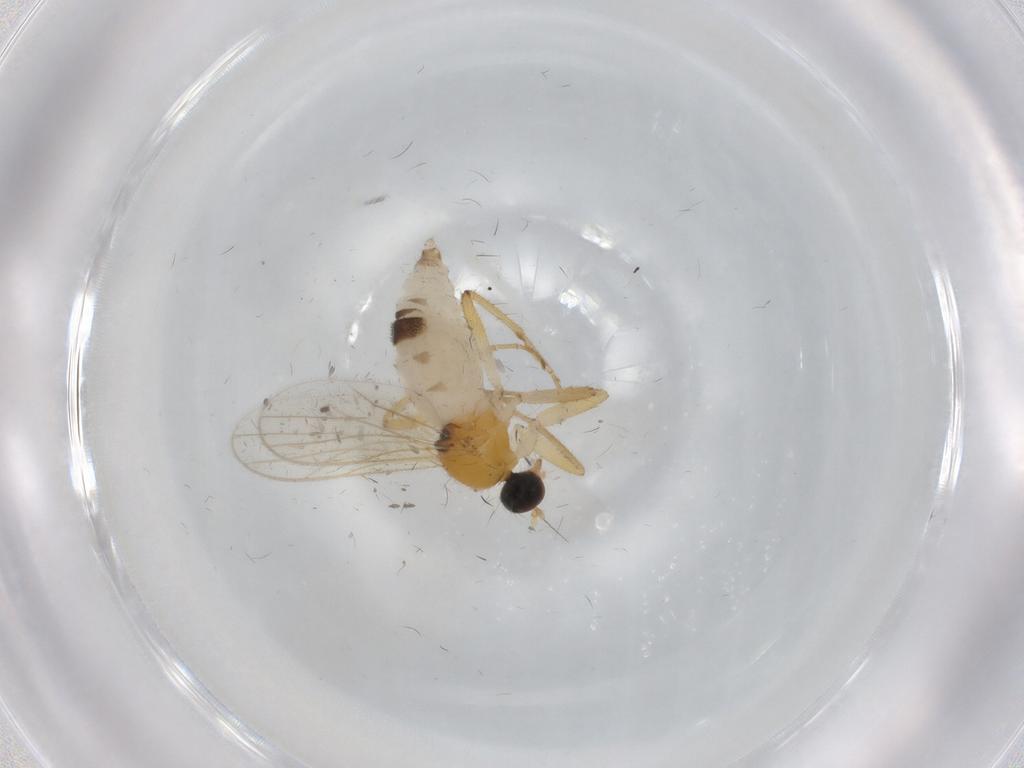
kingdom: Animalia
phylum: Arthropoda
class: Insecta
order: Diptera
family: Hybotidae
